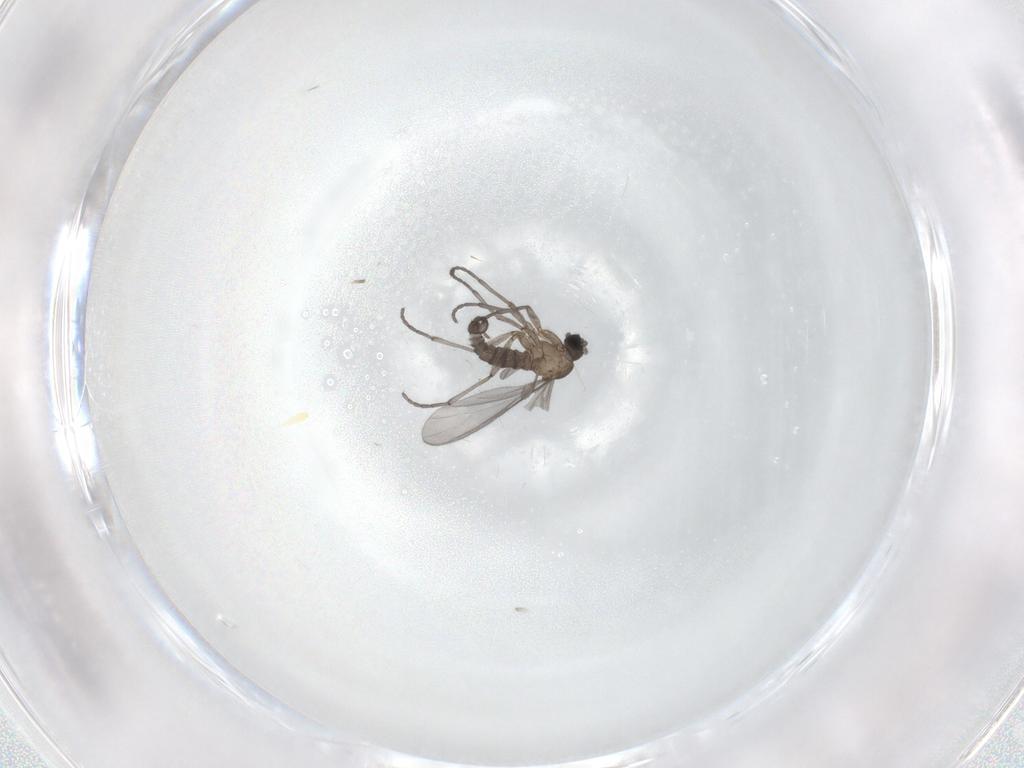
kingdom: Animalia
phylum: Arthropoda
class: Insecta
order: Diptera
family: Sciaridae
